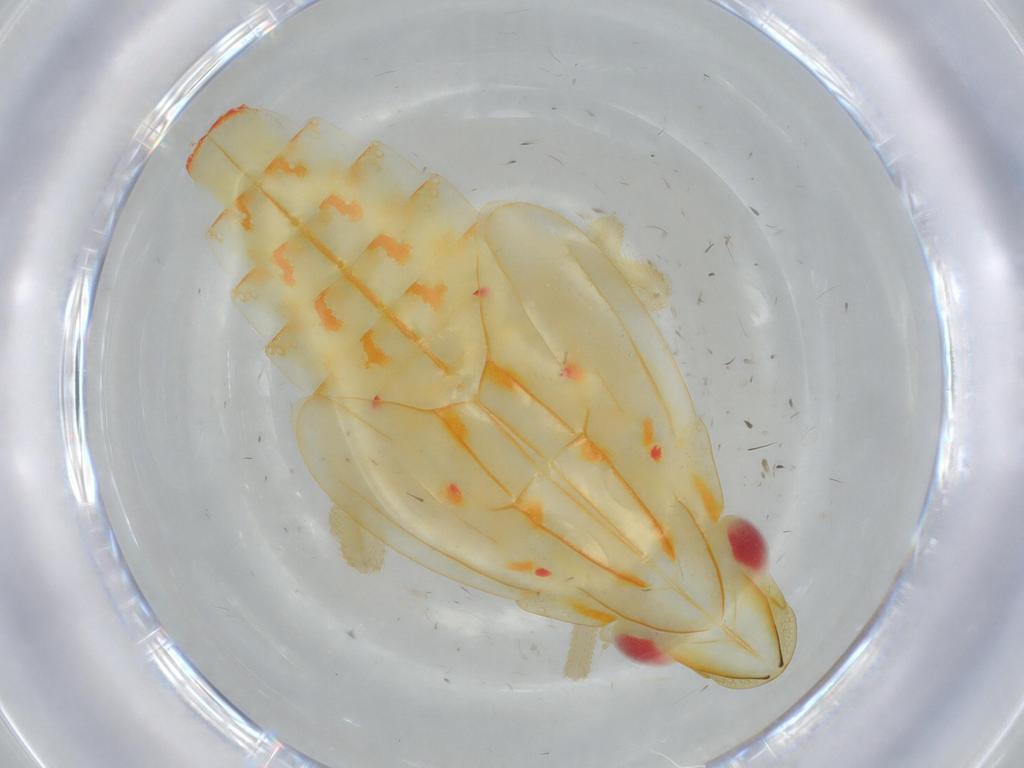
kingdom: Animalia
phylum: Arthropoda
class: Insecta
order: Hemiptera
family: Tropiduchidae
